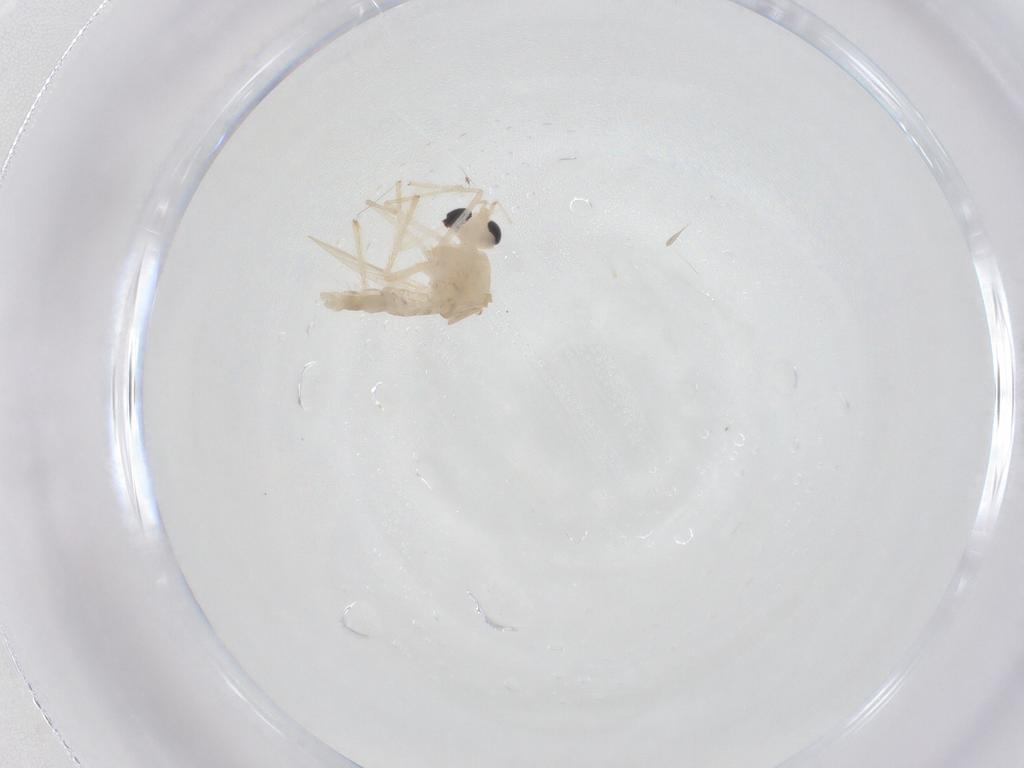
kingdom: Animalia
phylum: Arthropoda
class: Insecta
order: Diptera
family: Chironomidae
